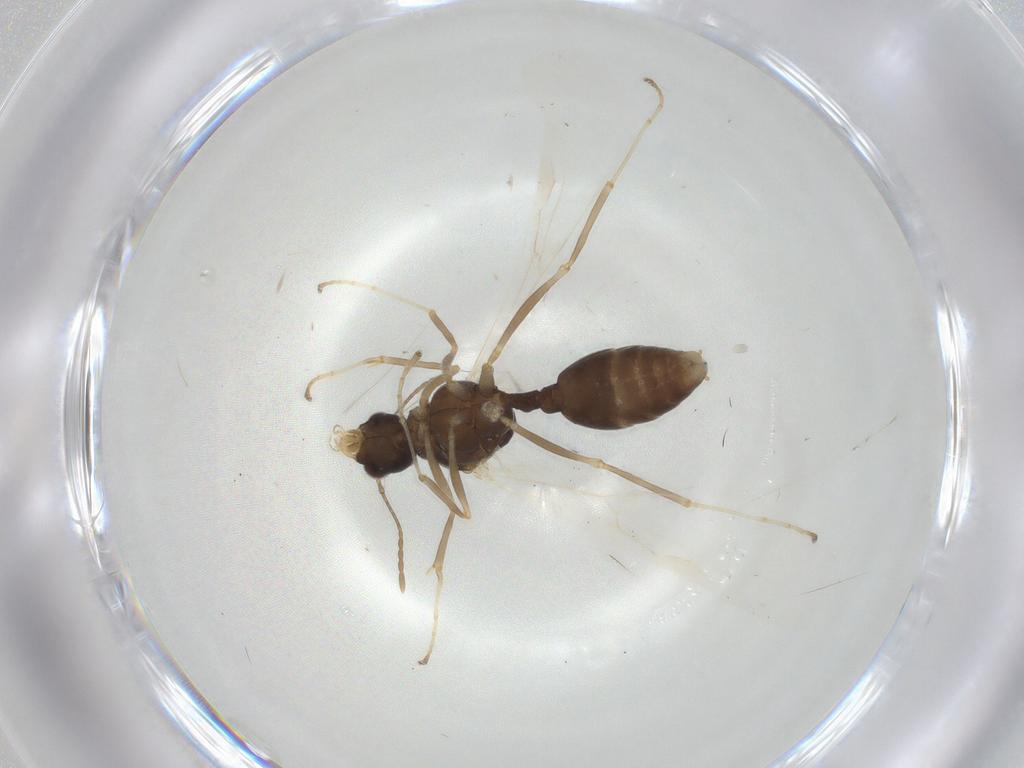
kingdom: Animalia
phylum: Arthropoda
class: Insecta
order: Hymenoptera
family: Formicidae
